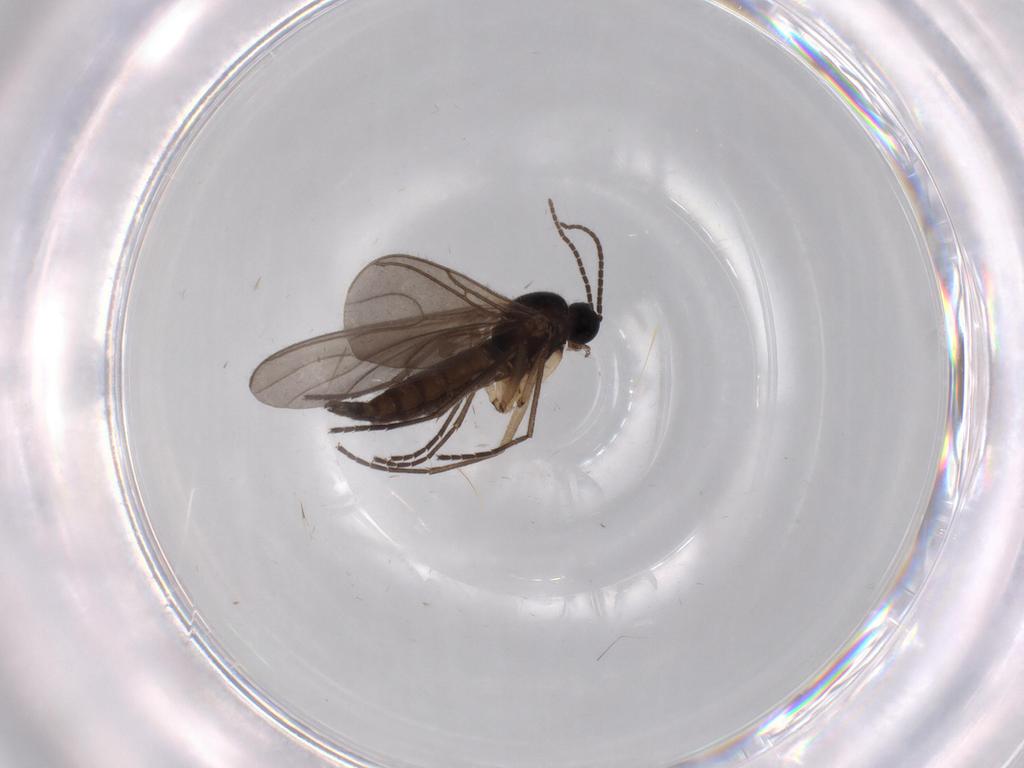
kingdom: Animalia
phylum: Arthropoda
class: Insecta
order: Diptera
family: Sciaridae
